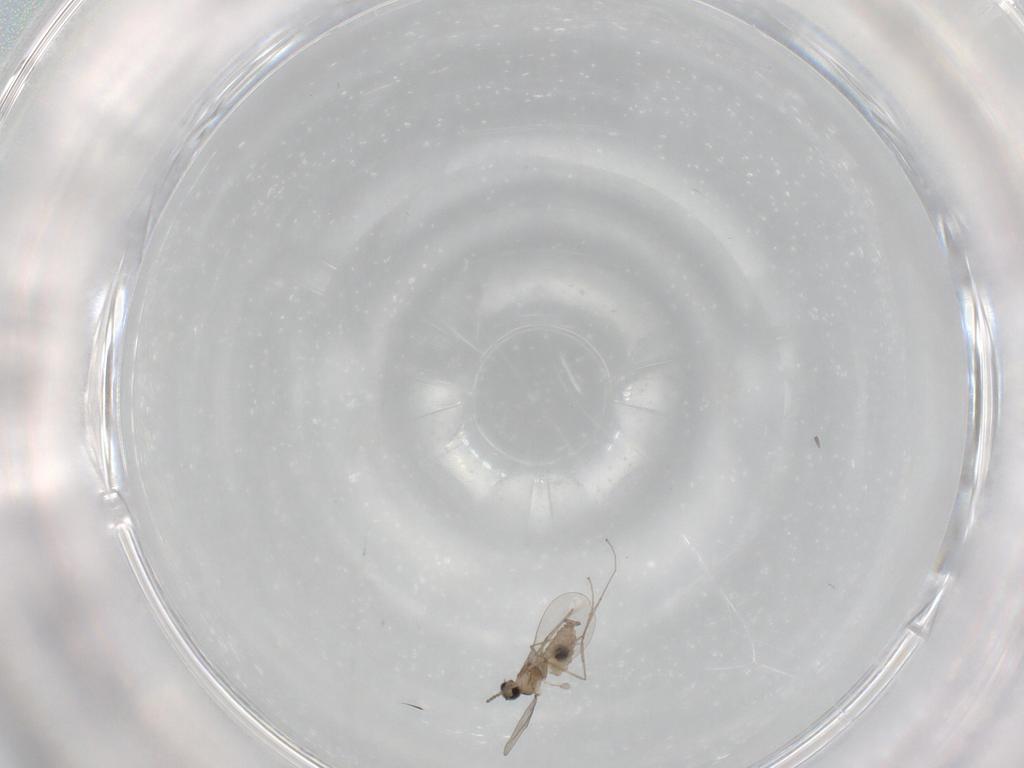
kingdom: Animalia
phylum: Arthropoda
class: Insecta
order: Diptera
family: Cecidomyiidae
